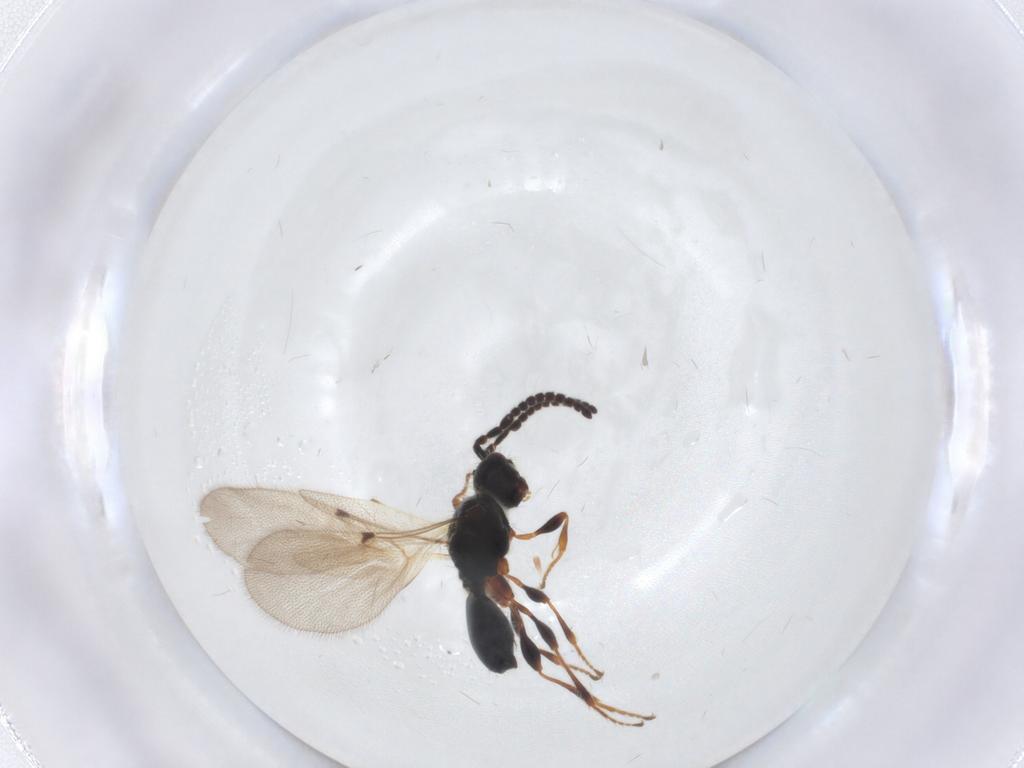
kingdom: Animalia
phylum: Arthropoda
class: Insecta
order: Hymenoptera
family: Diapriidae
